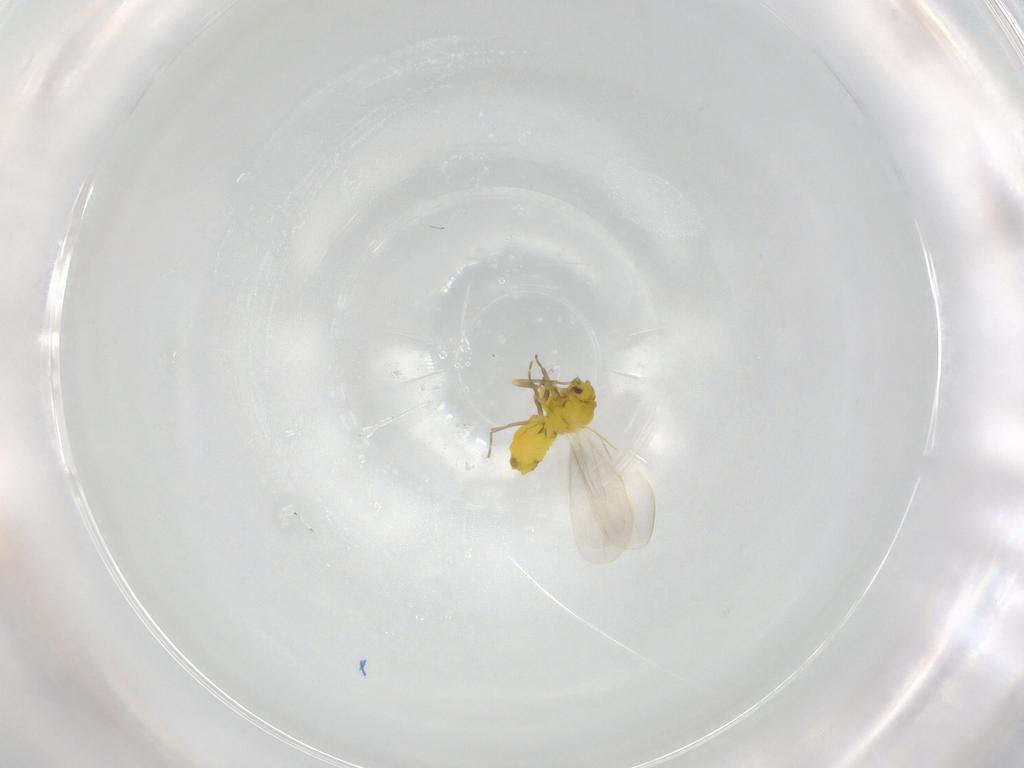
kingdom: Animalia
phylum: Arthropoda
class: Insecta
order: Hemiptera
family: Aleyrodidae
